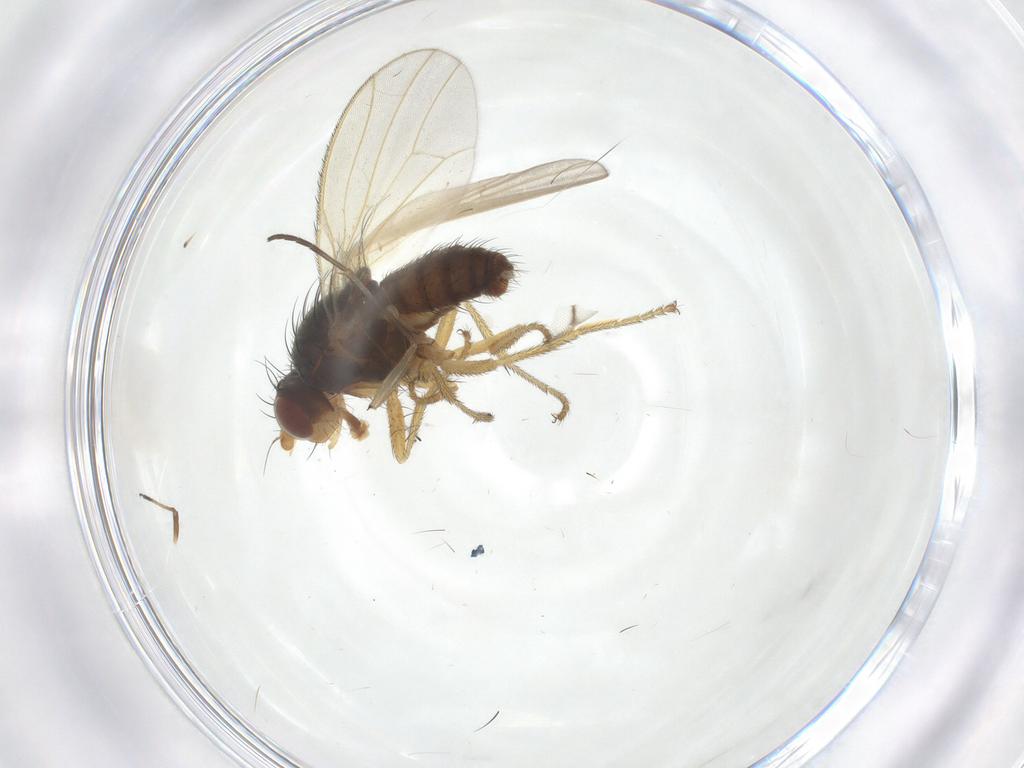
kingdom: Animalia
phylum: Arthropoda
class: Insecta
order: Diptera
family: Heleomyzidae
